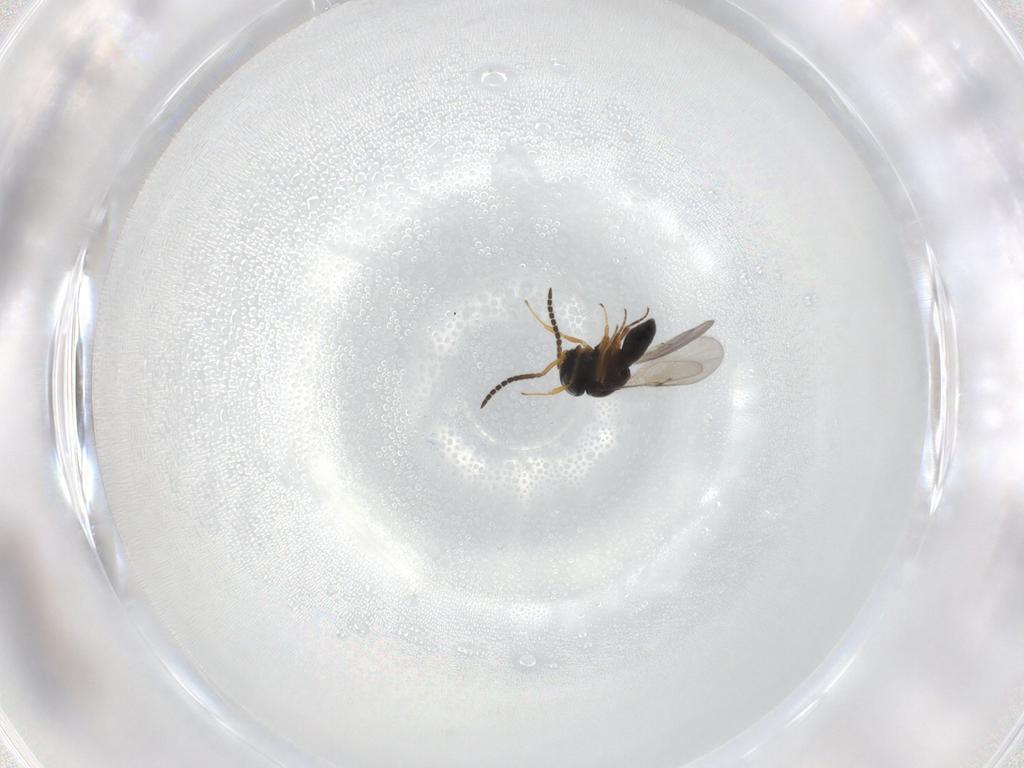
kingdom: Animalia
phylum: Arthropoda
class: Insecta
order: Hymenoptera
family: Scelionidae
